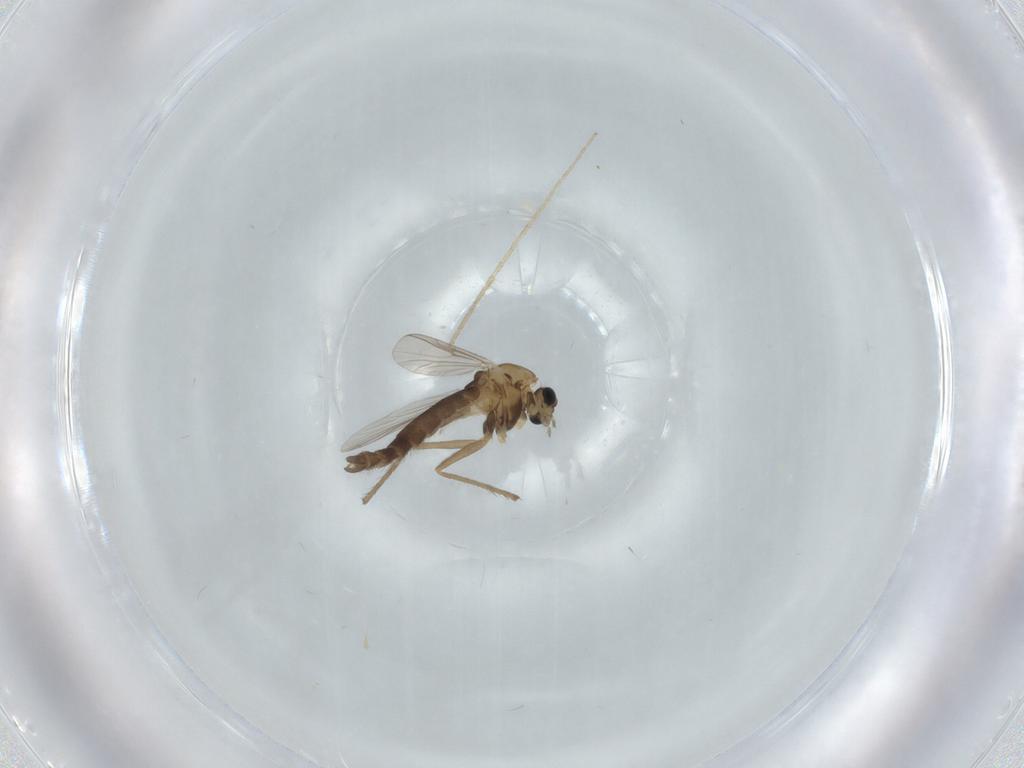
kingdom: Animalia
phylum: Arthropoda
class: Insecta
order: Diptera
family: Chironomidae
